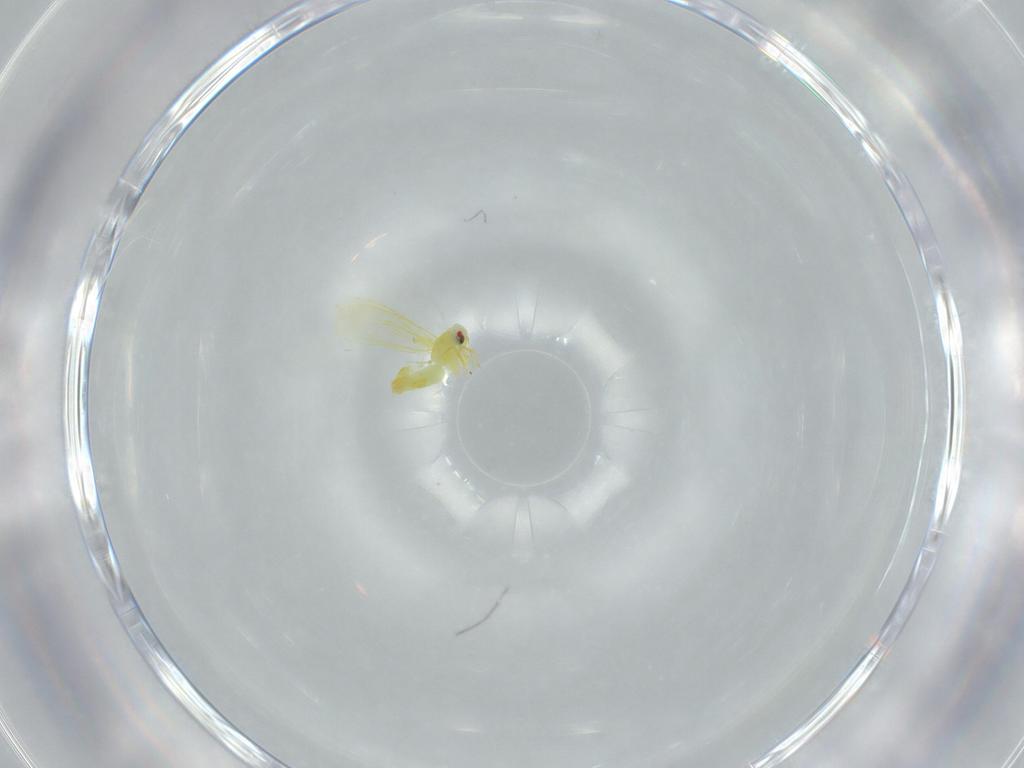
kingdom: Animalia
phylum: Arthropoda
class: Insecta
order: Hemiptera
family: Aleyrodidae
